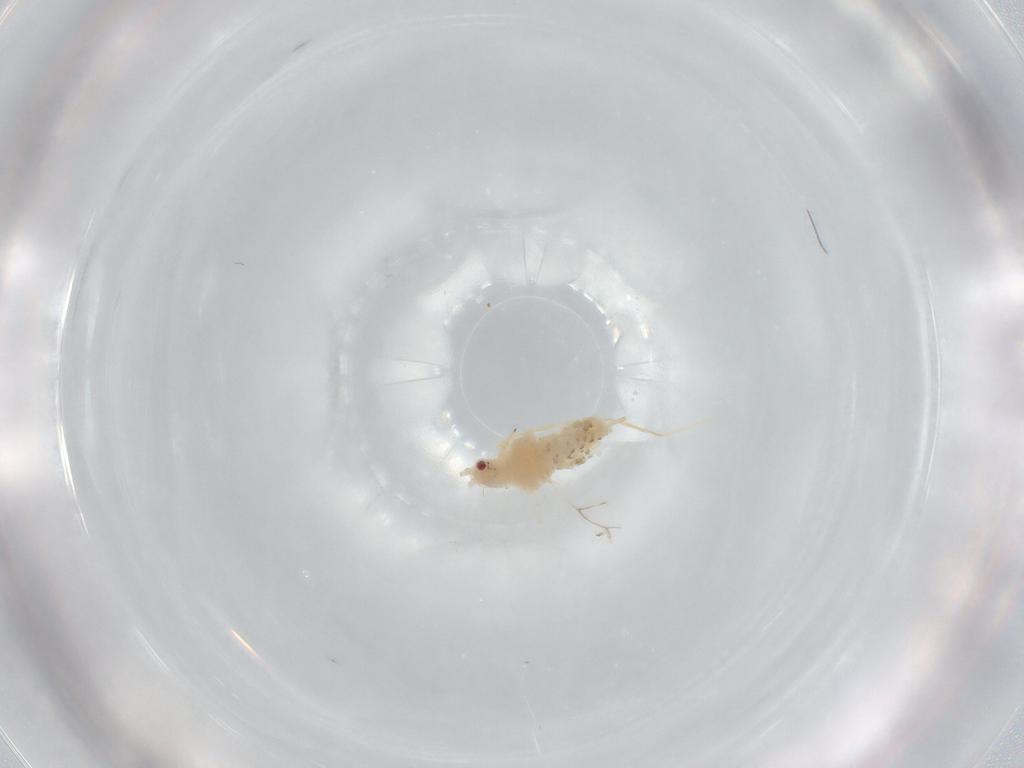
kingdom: Animalia
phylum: Arthropoda
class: Insecta
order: Hemiptera
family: Aphididae
